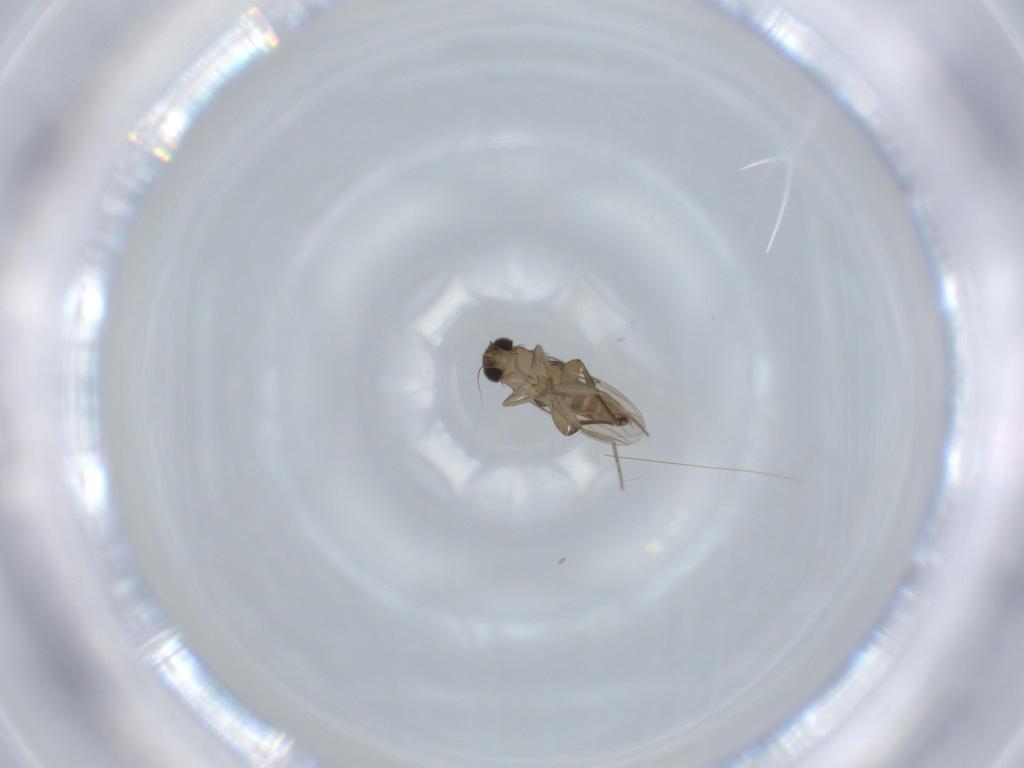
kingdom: Animalia
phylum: Arthropoda
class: Insecta
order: Diptera
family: Phoridae
